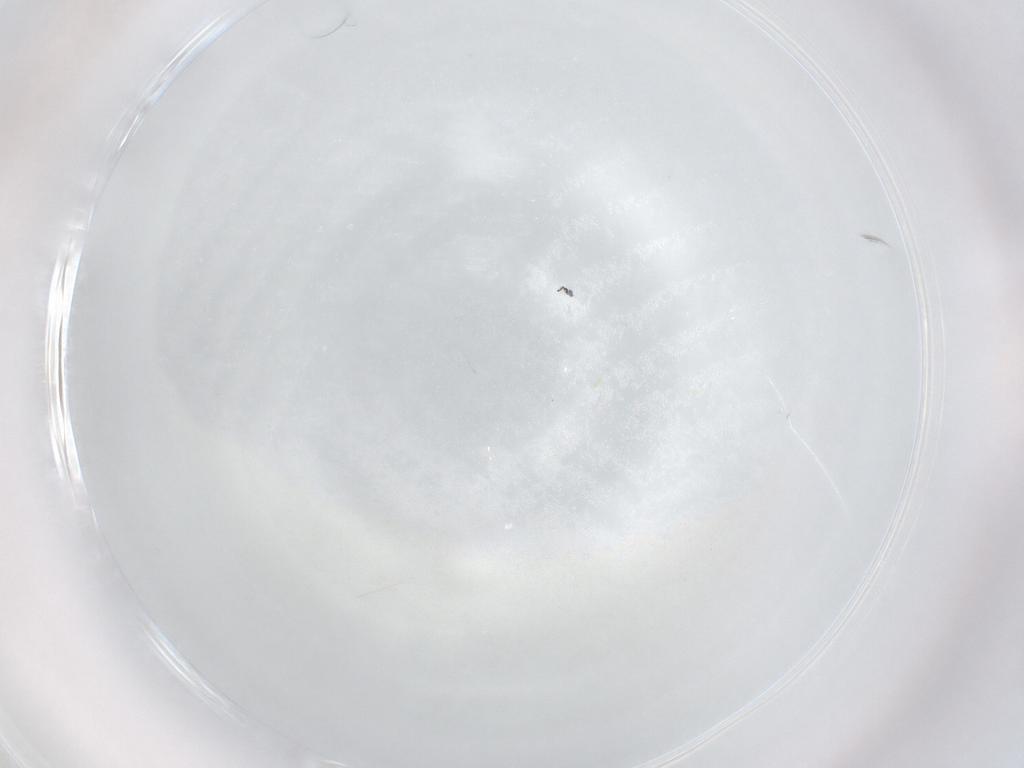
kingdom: Animalia
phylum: Arthropoda
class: Collembola
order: Poduromorpha
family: Hypogastruridae
